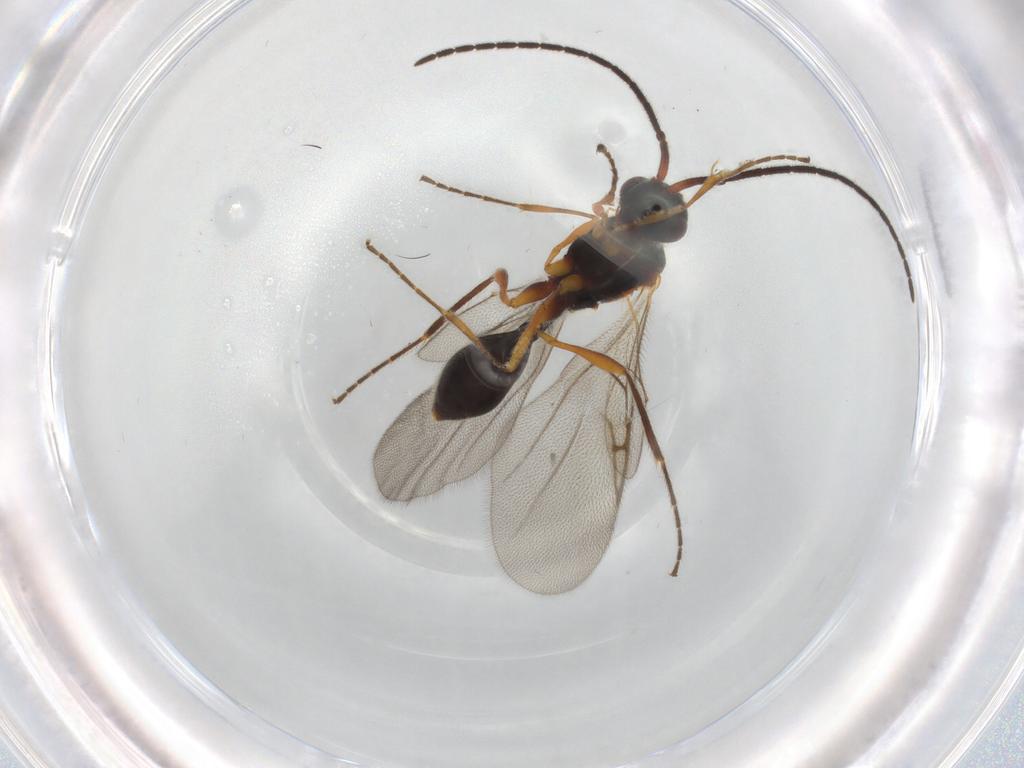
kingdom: Animalia
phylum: Arthropoda
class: Insecta
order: Hymenoptera
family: Diapriidae
